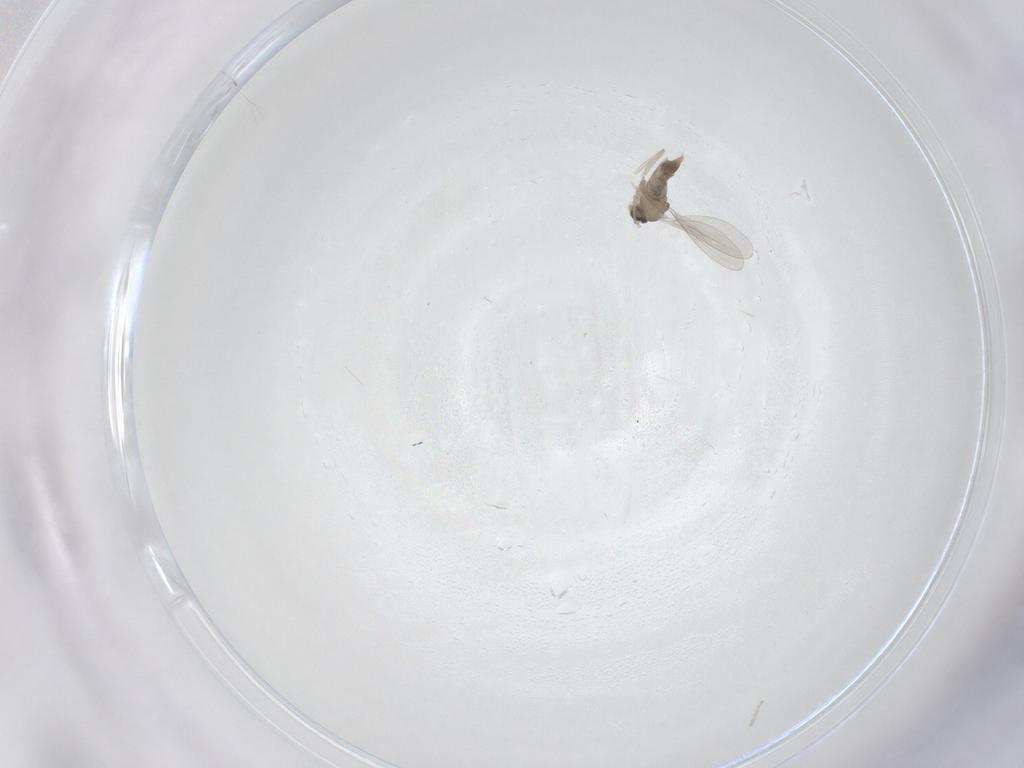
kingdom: Animalia
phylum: Arthropoda
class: Insecta
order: Diptera
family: Cecidomyiidae
